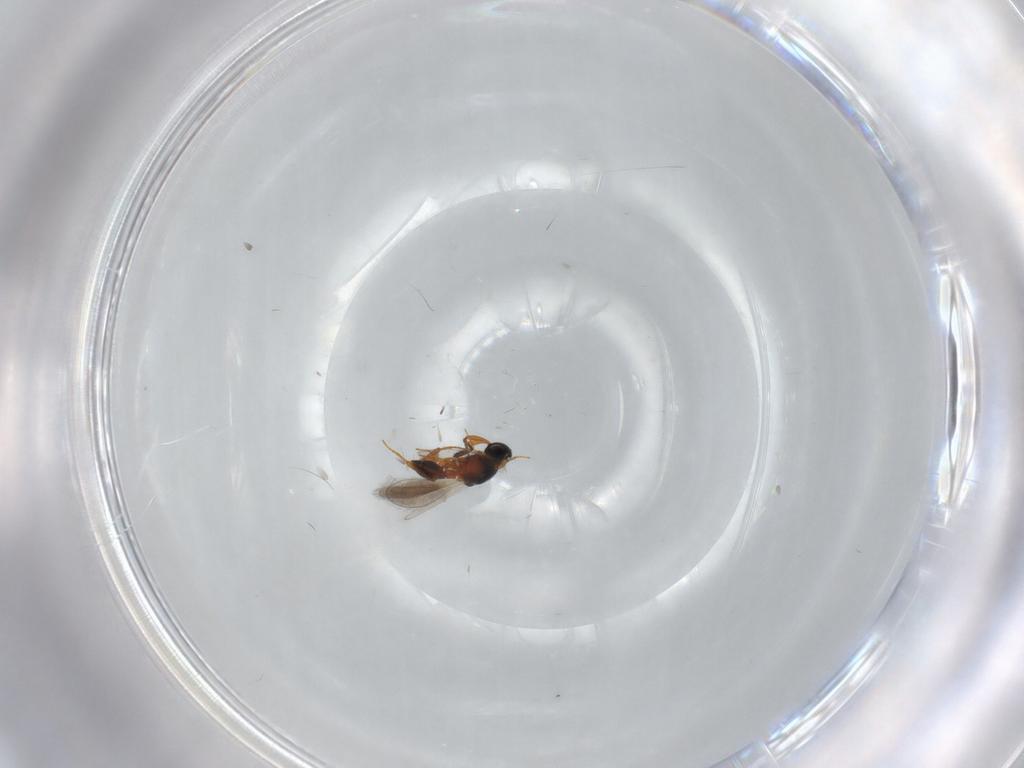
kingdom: Animalia
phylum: Arthropoda
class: Insecta
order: Hymenoptera
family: Platygastridae
